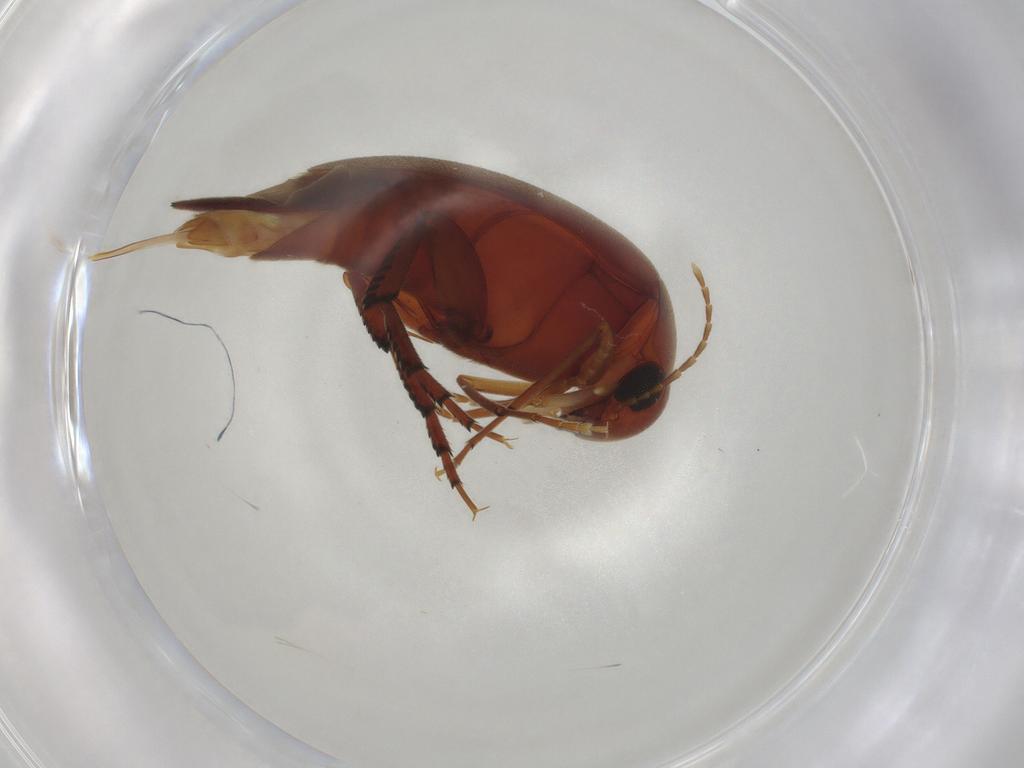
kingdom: Animalia
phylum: Arthropoda
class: Insecta
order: Coleoptera
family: Mordellidae
